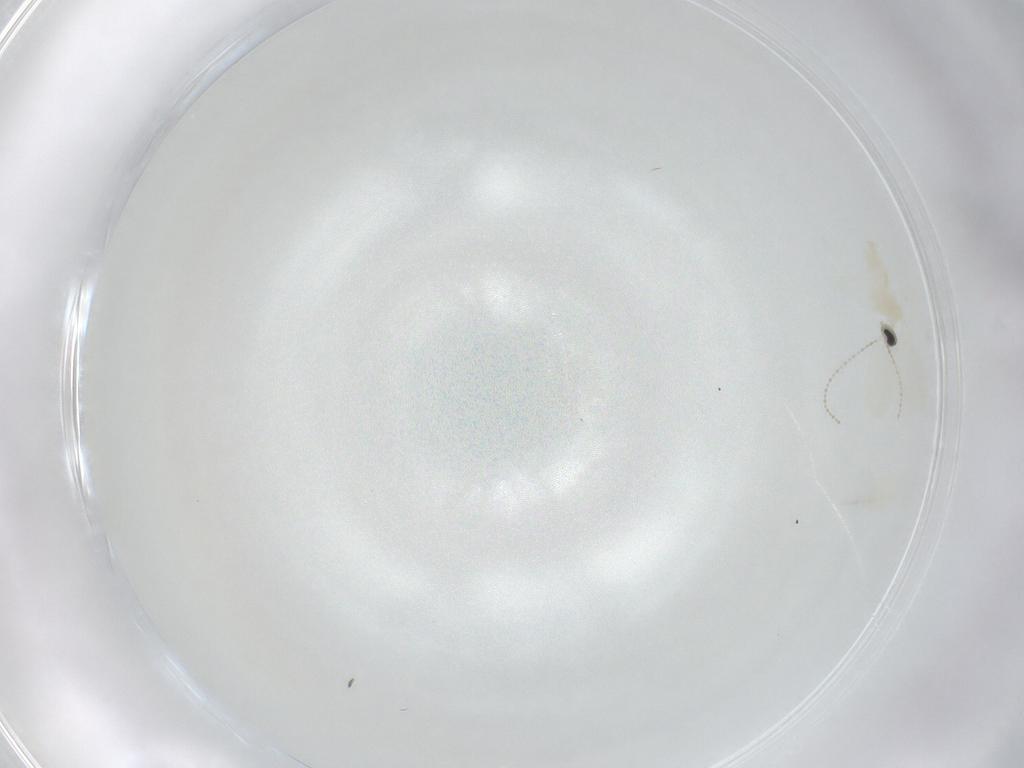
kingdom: Animalia
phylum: Arthropoda
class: Insecta
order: Diptera
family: Cecidomyiidae
